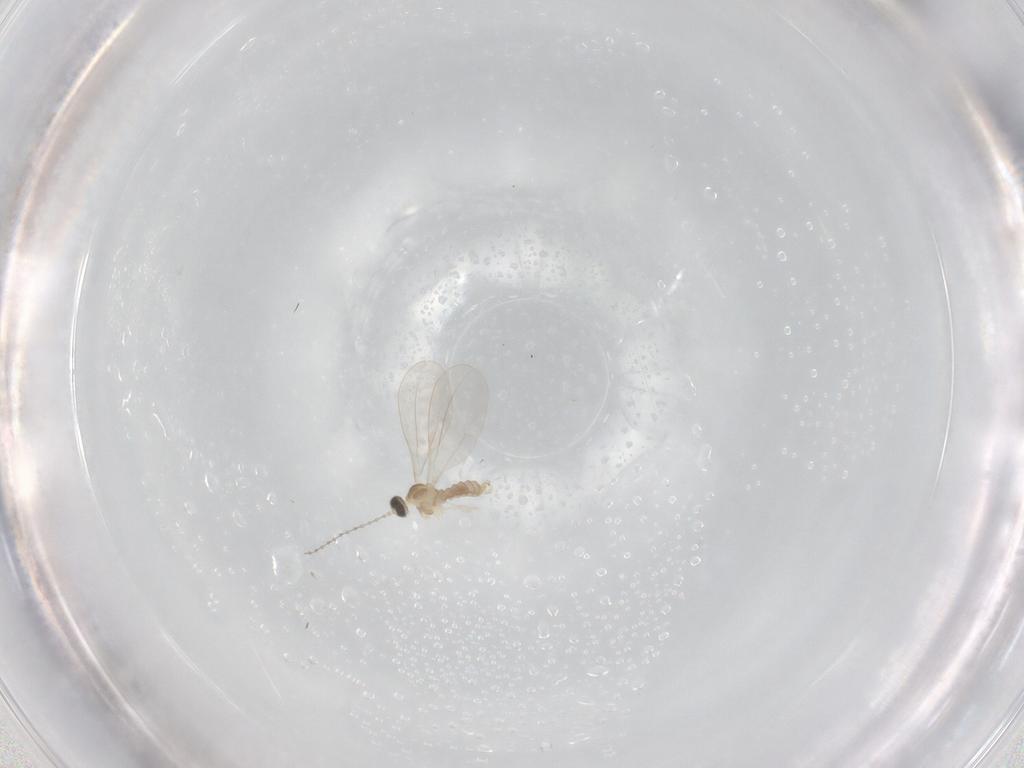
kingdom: Animalia
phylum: Arthropoda
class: Insecta
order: Diptera
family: Cecidomyiidae
